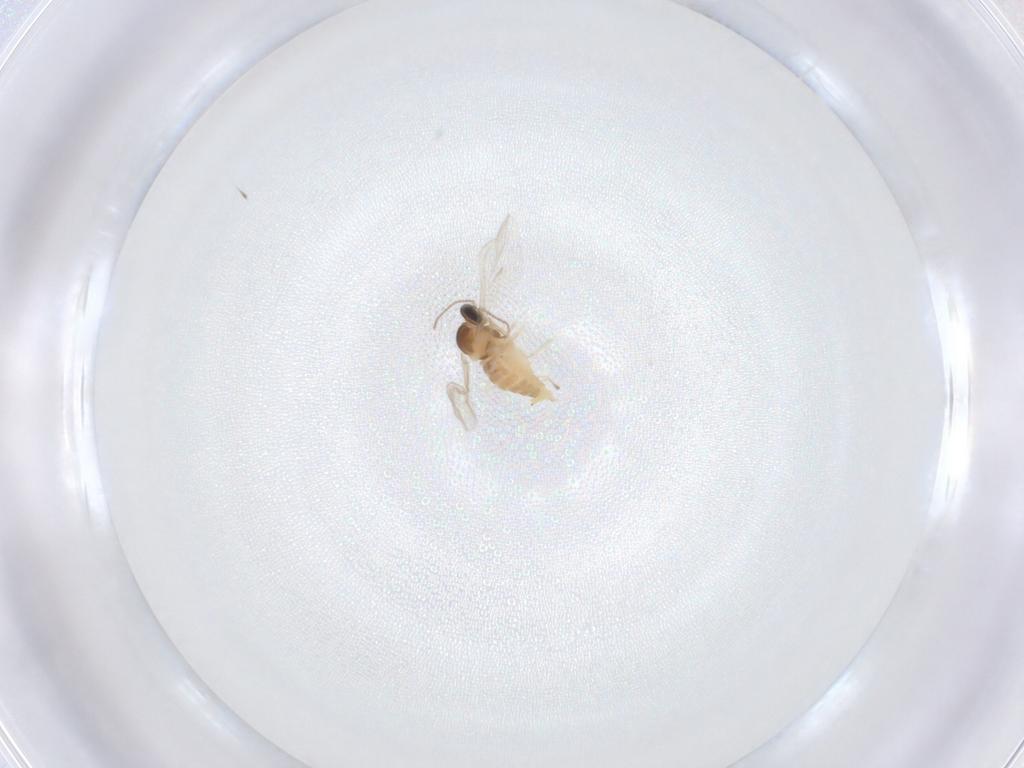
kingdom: Animalia
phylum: Arthropoda
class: Insecta
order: Diptera
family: Cecidomyiidae
